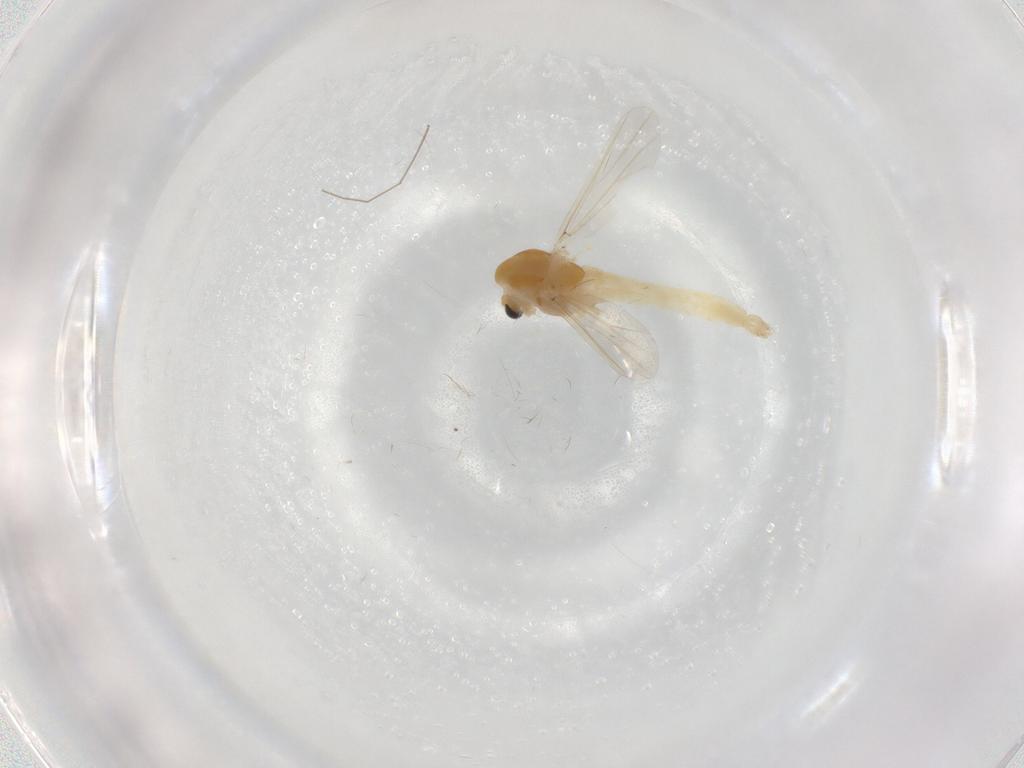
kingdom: Animalia
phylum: Arthropoda
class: Insecta
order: Diptera
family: Chironomidae
